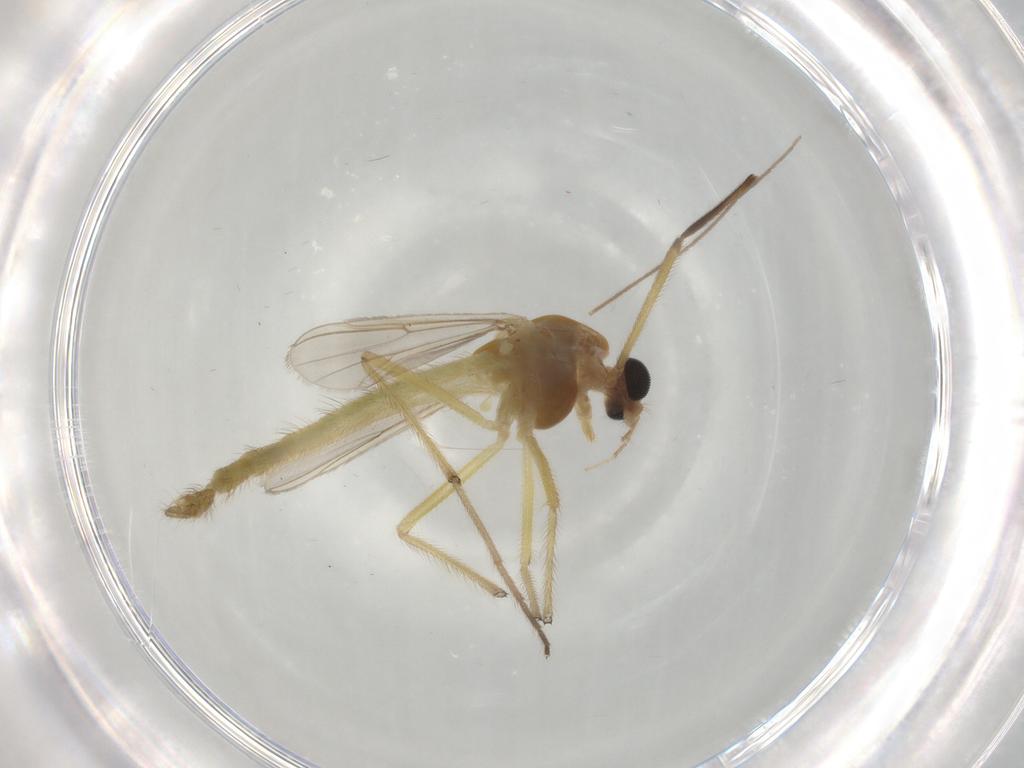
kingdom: Animalia
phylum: Arthropoda
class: Insecta
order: Diptera
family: Chironomidae
